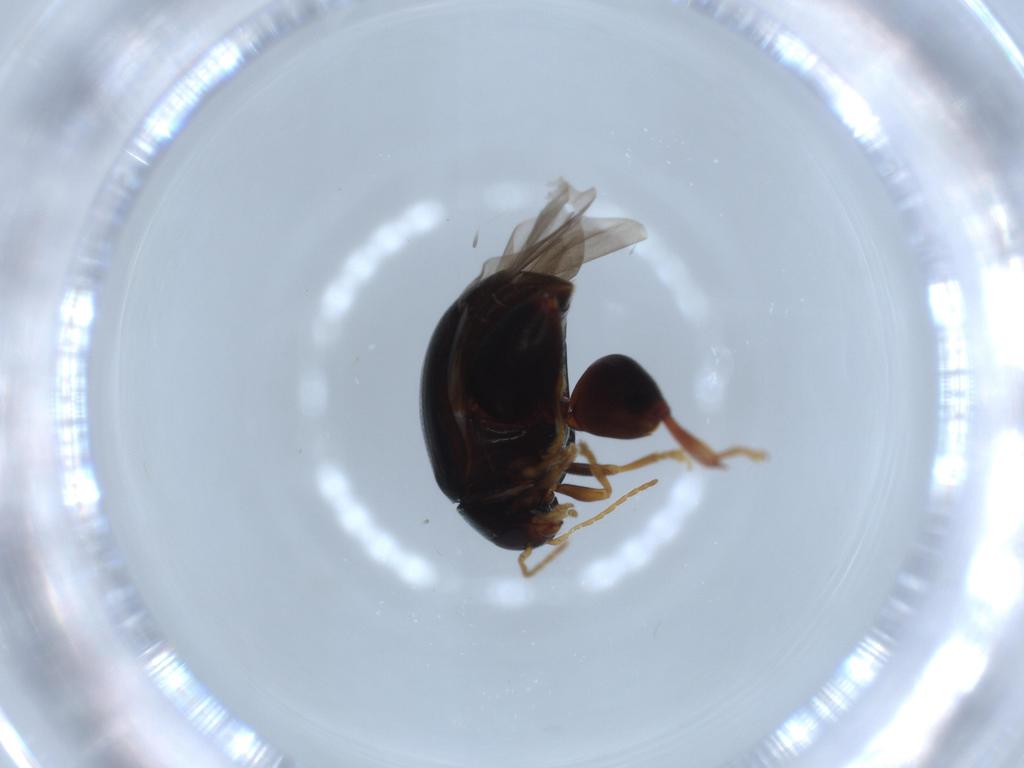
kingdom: Animalia
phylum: Arthropoda
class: Insecta
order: Coleoptera
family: Chrysomelidae
